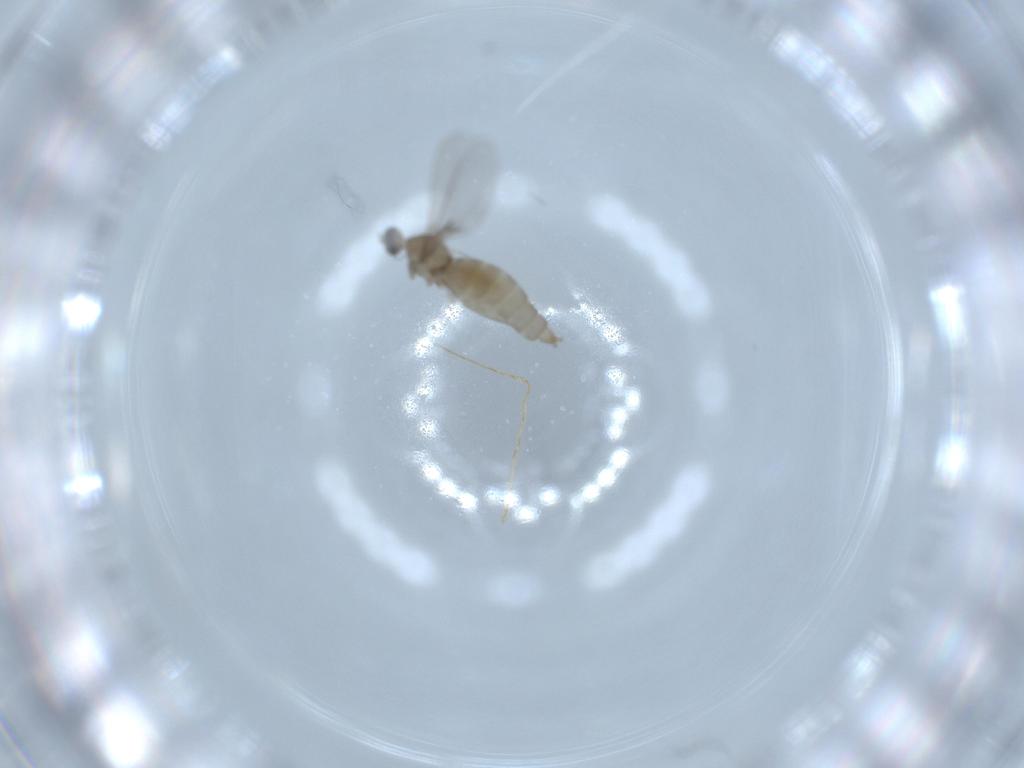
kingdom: Animalia
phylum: Arthropoda
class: Insecta
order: Diptera
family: Cecidomyiidae
